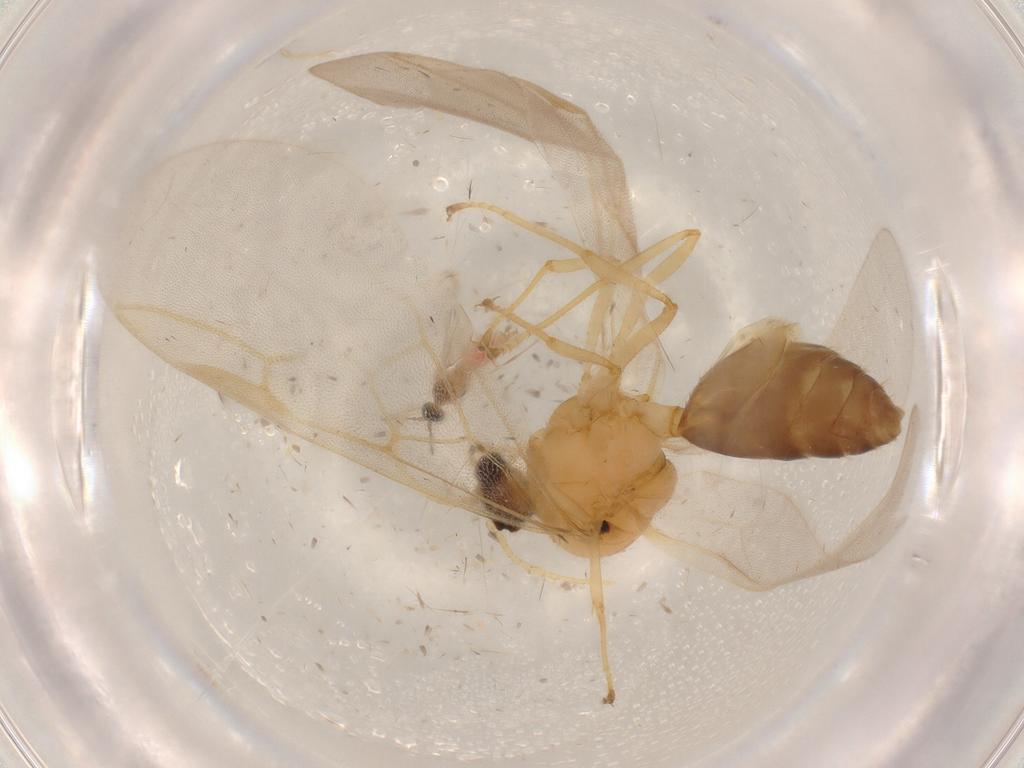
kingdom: Animalia
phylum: Arthropoda
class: Insecta
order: Diptera
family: Cecidomyiidae
